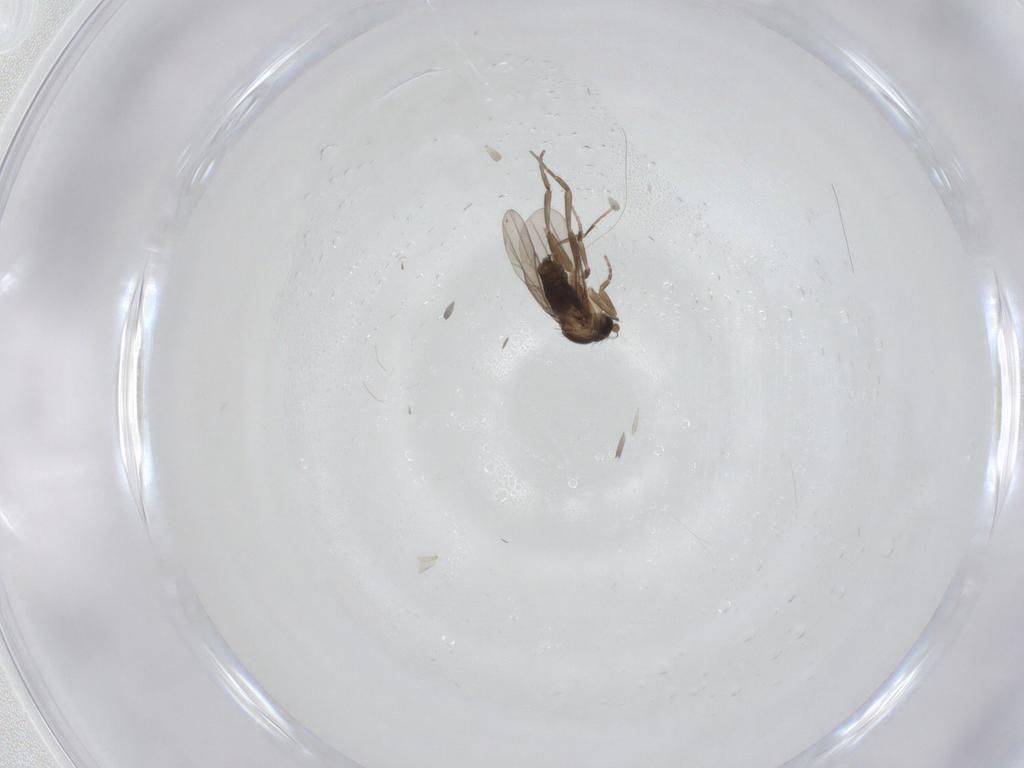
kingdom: Animalia
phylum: Arthropoda
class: Insecta
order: Diptera
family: Phoridae
